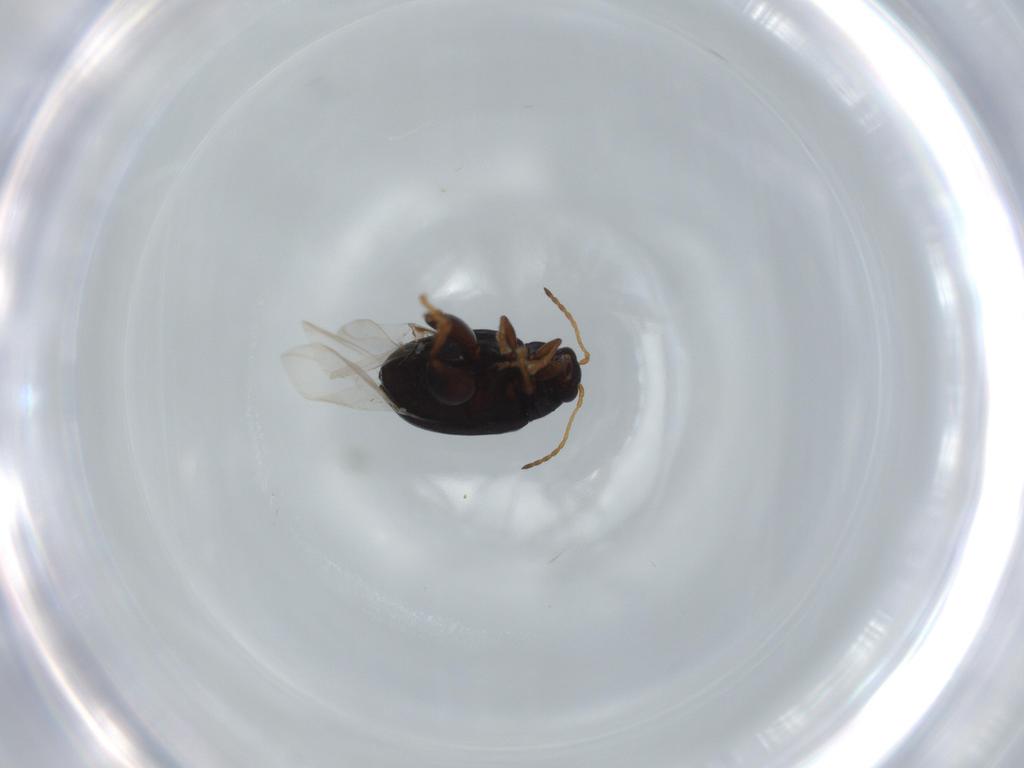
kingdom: Animalia
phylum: Arthropoda
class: Insecta
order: Coleoptera
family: Chrysomelidae
